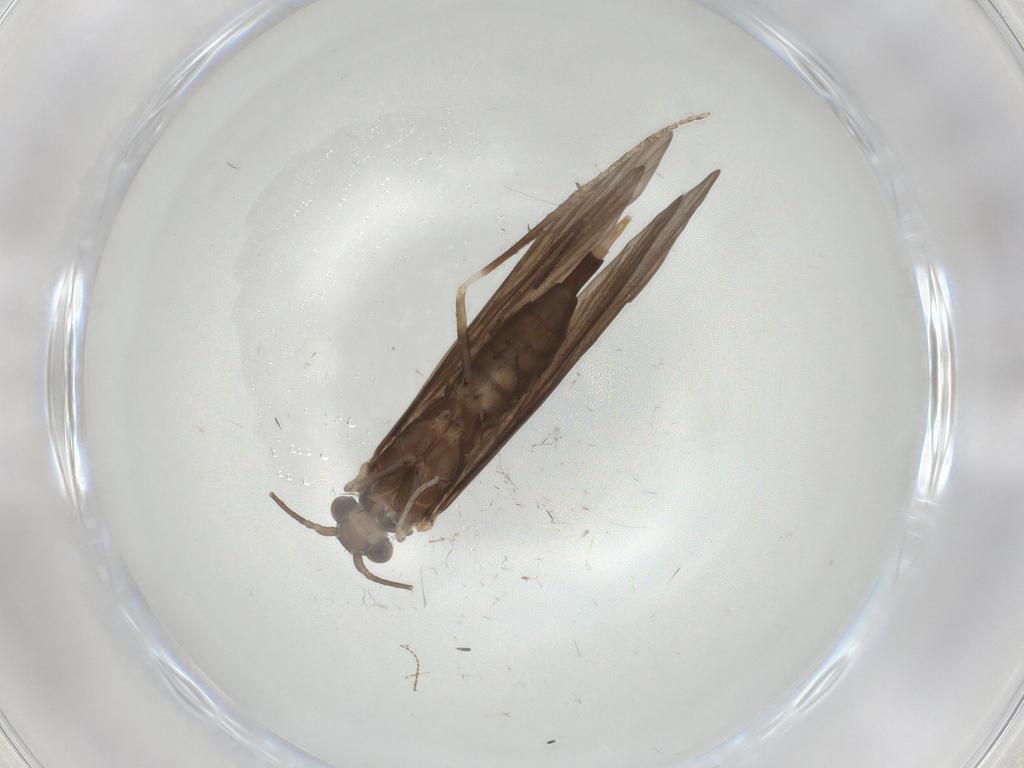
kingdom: Animalia
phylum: Arthropoda
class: Insecta
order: Trichoptera
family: Xiphocentronidae
